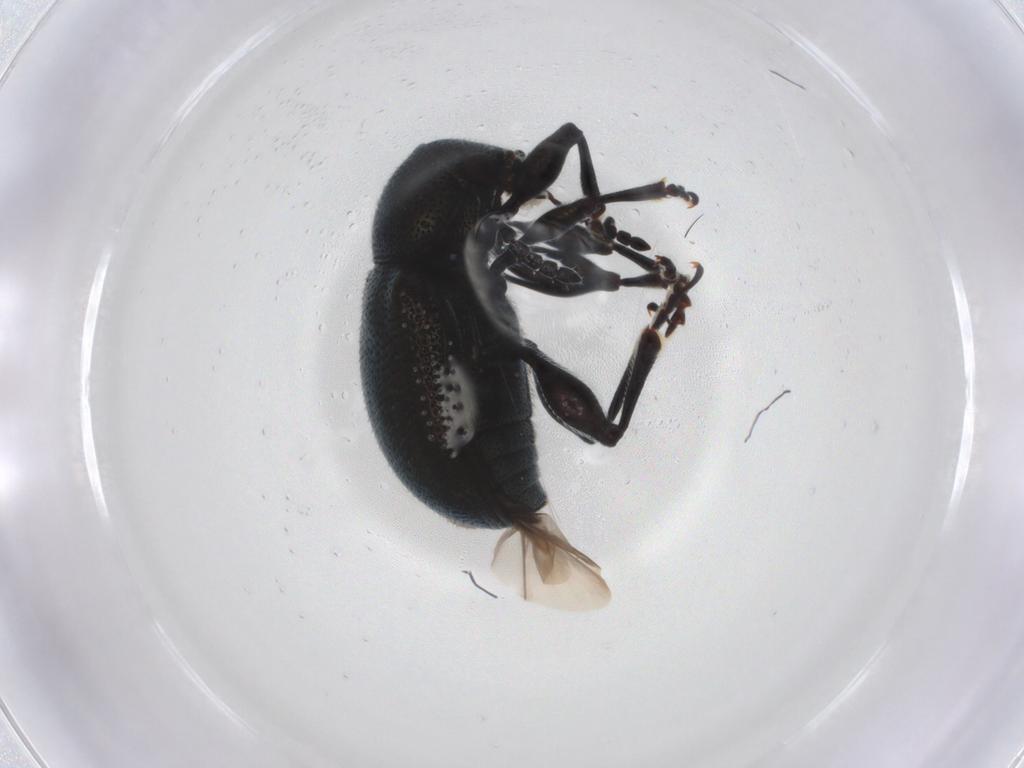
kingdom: Animalia
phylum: Arthropoda
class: Insecta
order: Coleoptera
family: Chrysomelidae
